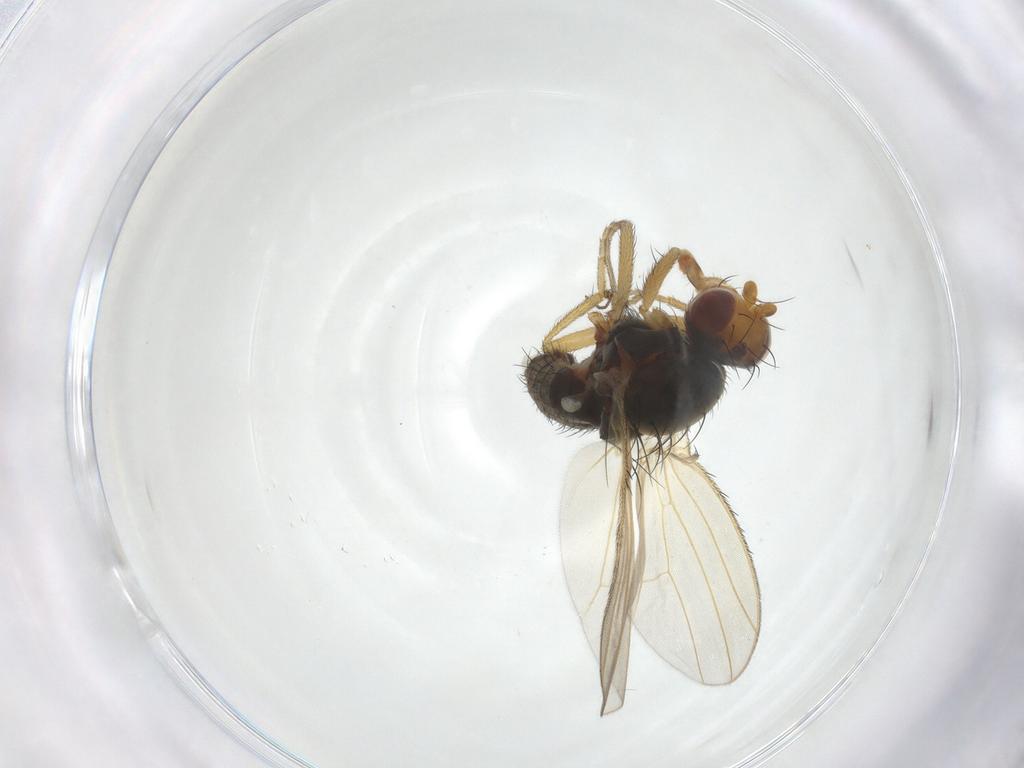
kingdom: Animalia
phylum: Arthropoda
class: Insecta
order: Diptera
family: Heleomyzidae
